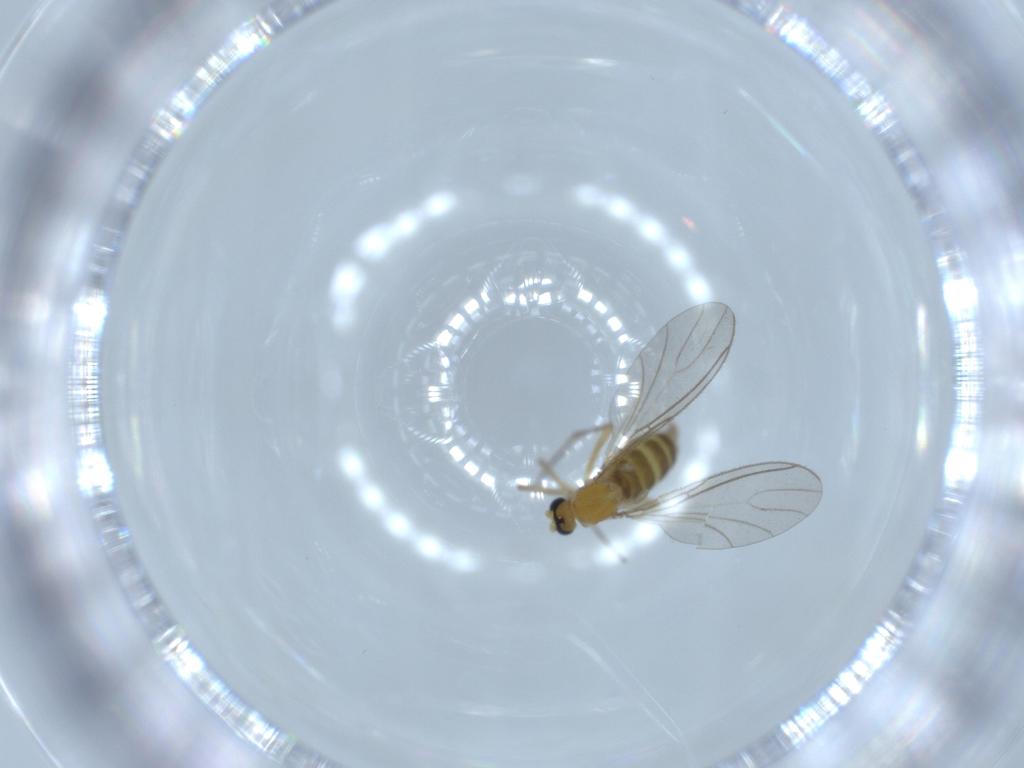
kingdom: Animalia
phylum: Arthropoda
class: Insecta
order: Diptera
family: Sciaridae
